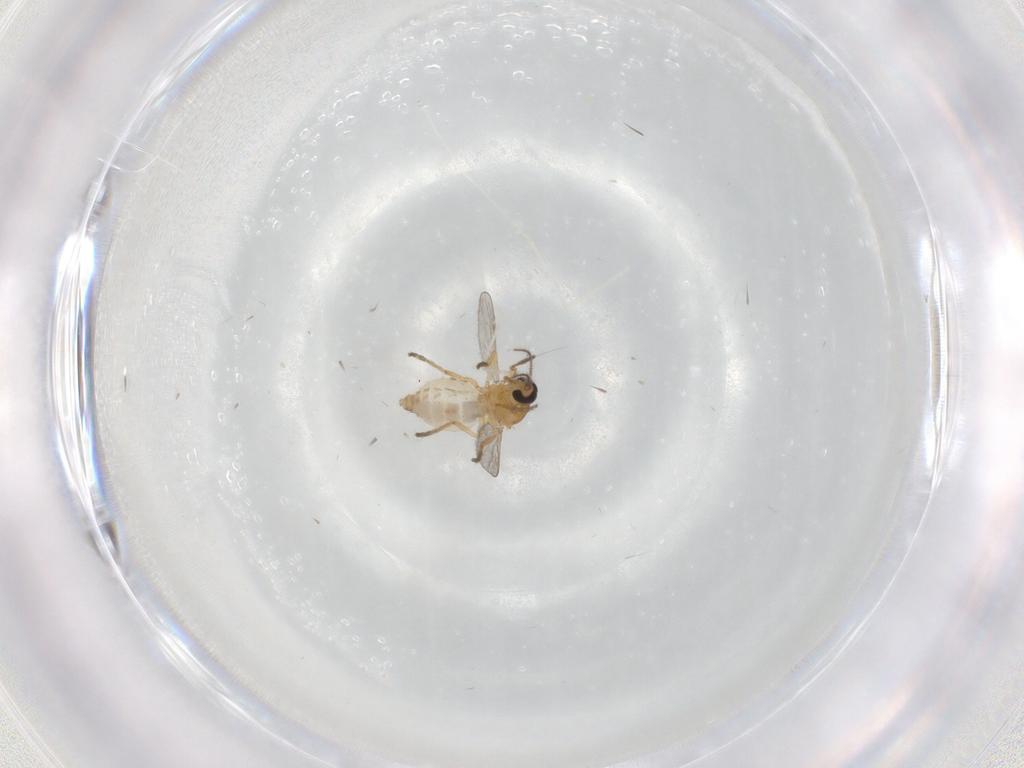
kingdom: Animalia
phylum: Arthropoda
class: Insecta
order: Diptera
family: Ceratopogonidae
